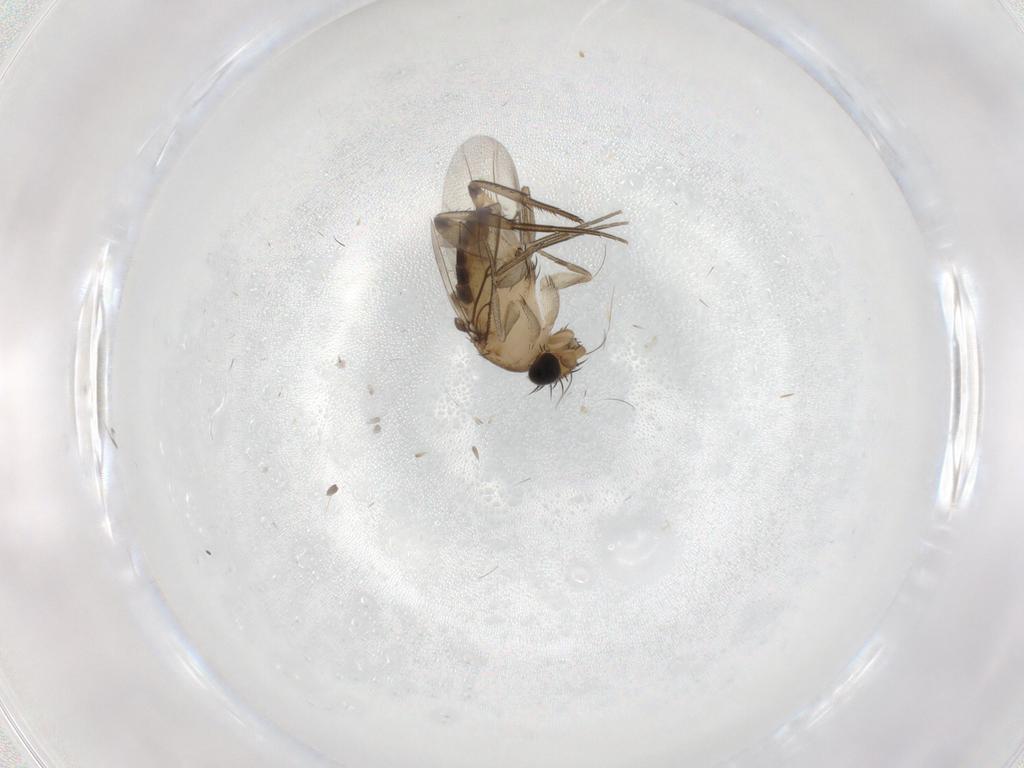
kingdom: Animalia
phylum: Arthropoda
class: Insecta
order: Diptera
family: Phoridae
